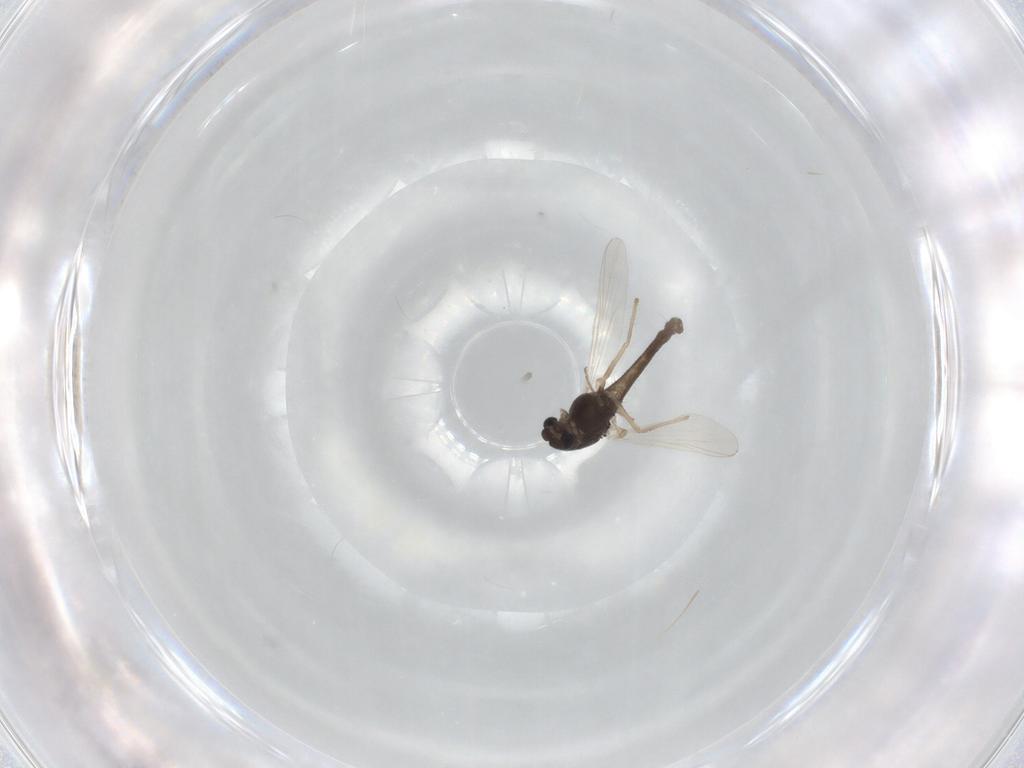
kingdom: Animalia
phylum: Arthropoda
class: Insecta
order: Diptera
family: Chironomidae
